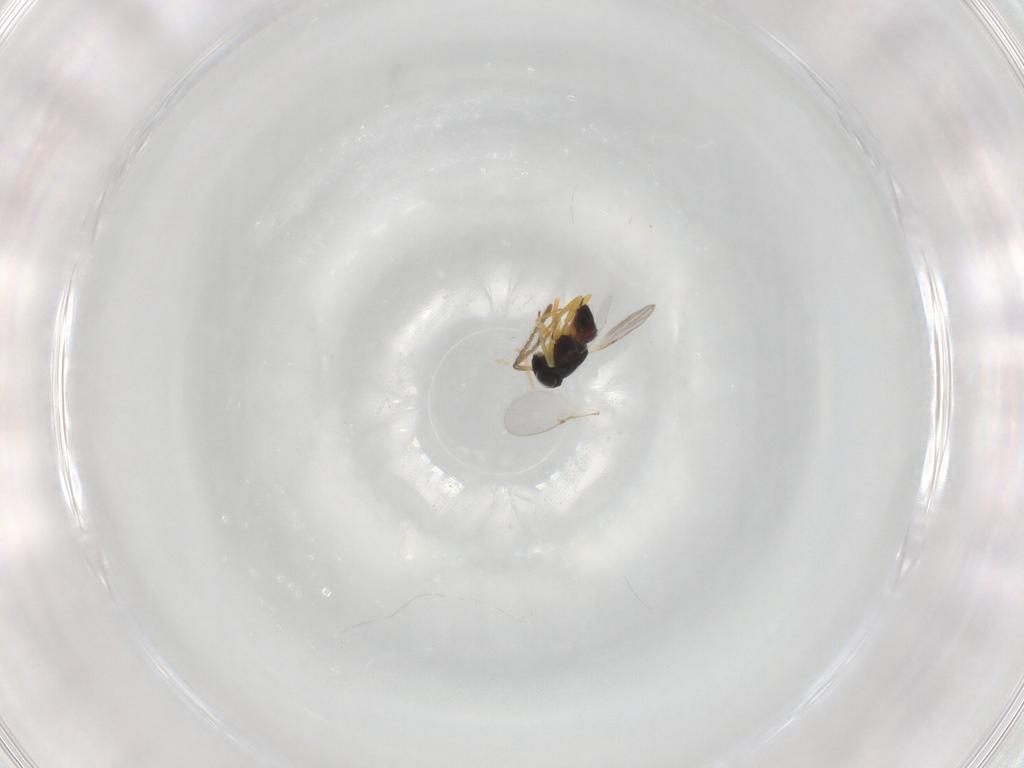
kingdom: Animalia
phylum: Arthropoda
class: Insecta
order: Hymenoptera
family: Encyrtidae
